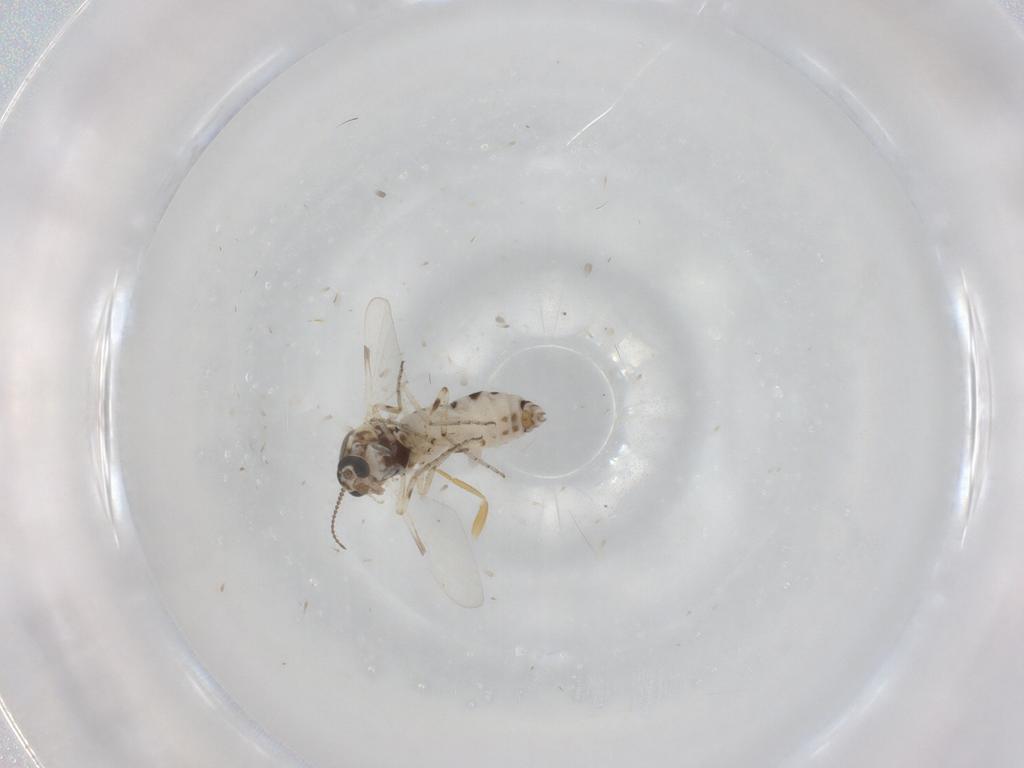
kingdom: Animalia
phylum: Arthropoda
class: Insecta
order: Diptera
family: Ceratopogonidae
